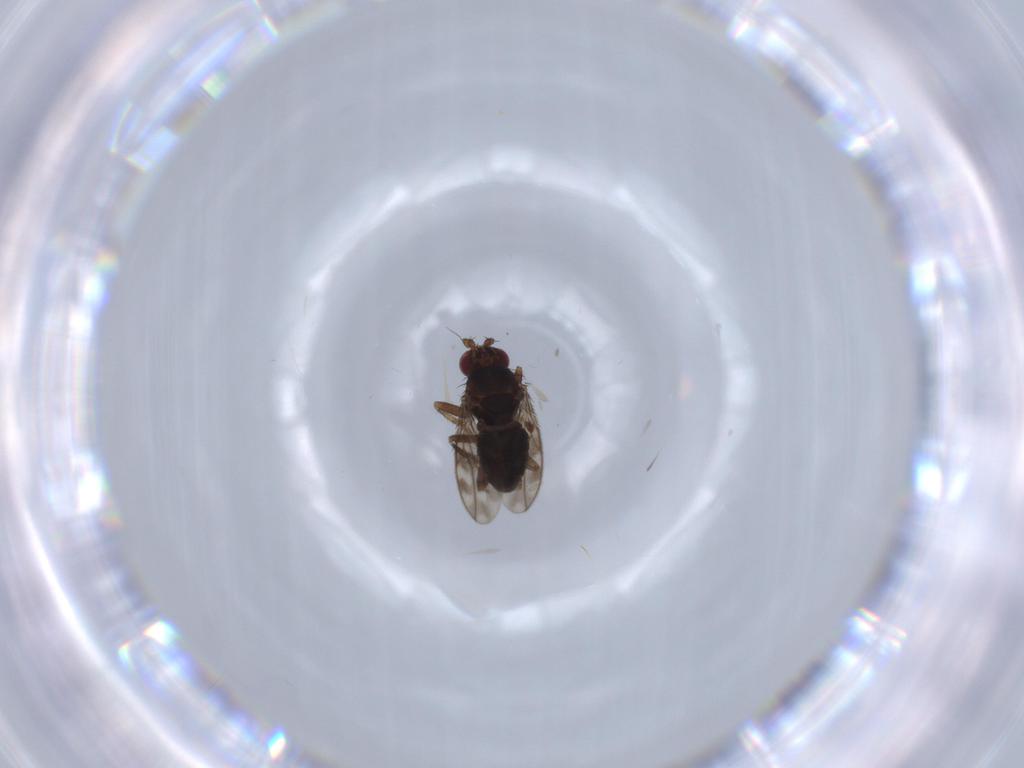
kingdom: Animalia
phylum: Arthropoda
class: Insecta
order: Diptera
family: Sphaeroceridae
